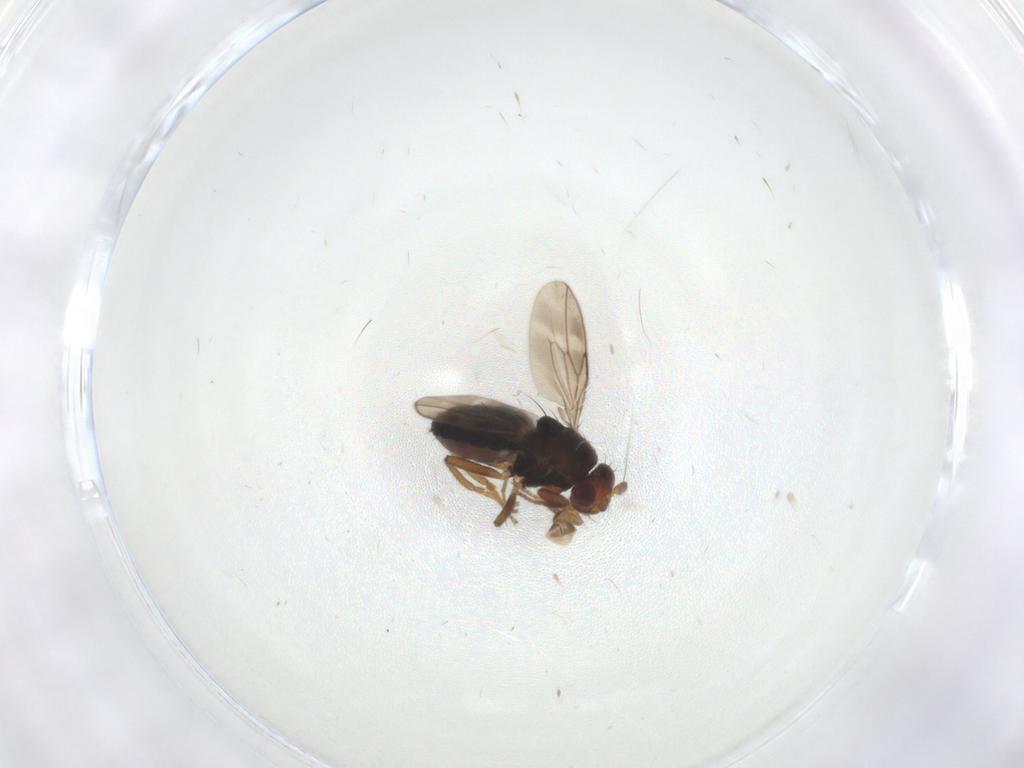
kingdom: Animalia
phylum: Arthropoda
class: Insecta
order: Diptera
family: Sphaeroceridae
